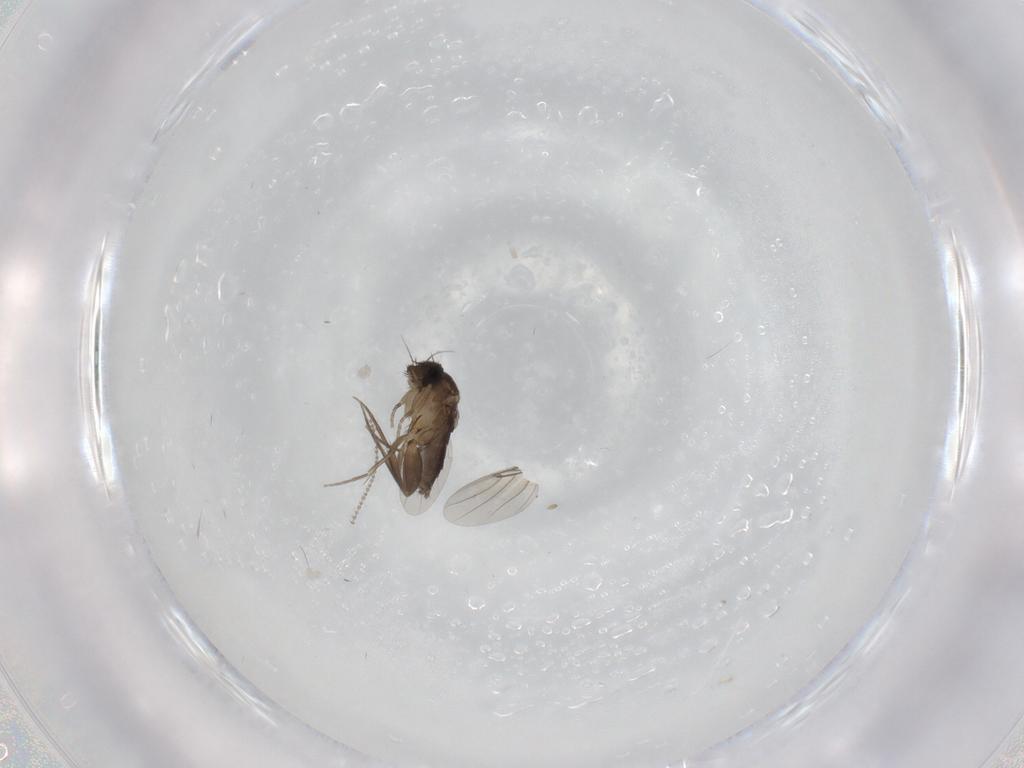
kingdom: Animalia
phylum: Arthropoda
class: Insecta
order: Diptera
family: Phoridae
